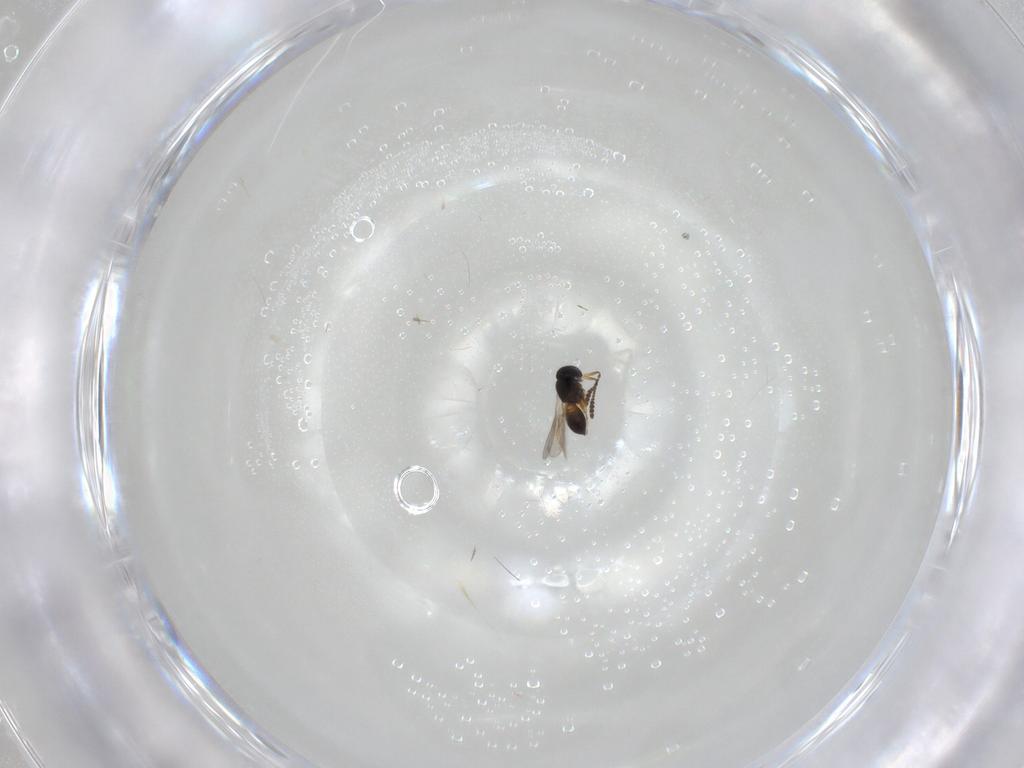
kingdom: Animalia
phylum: Arthropoda
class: Insecta
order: Hymenoptera
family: Scelionidae
